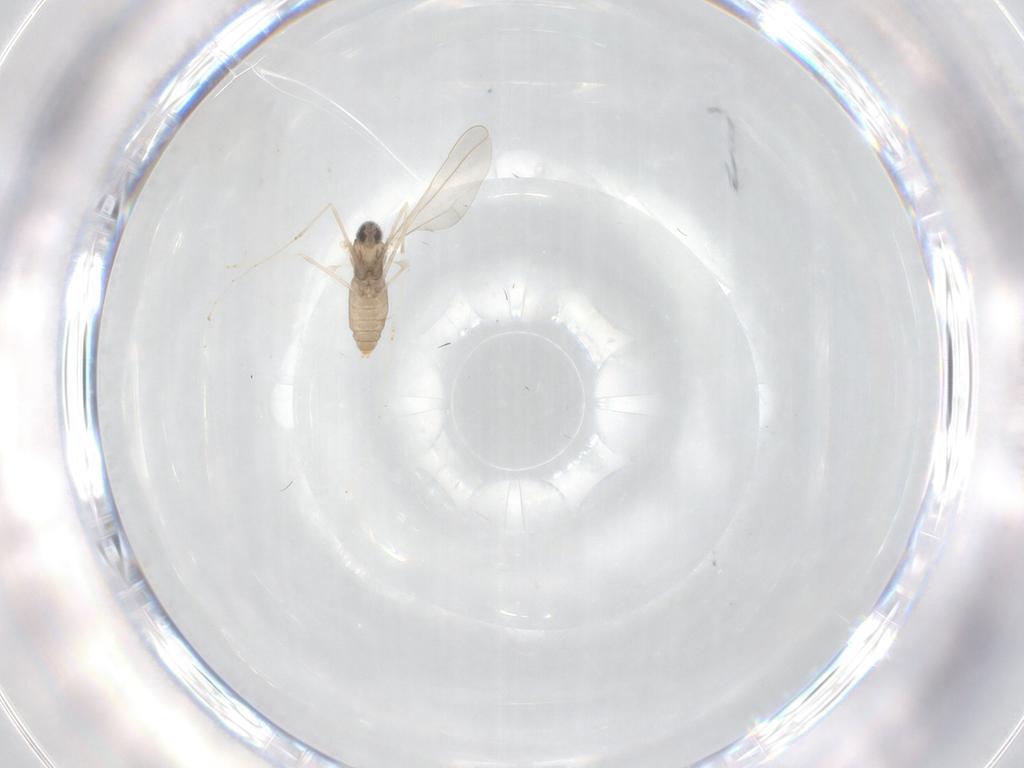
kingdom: Animalia
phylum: Arthropoda
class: Insecta
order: Diptera
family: Cecidomyiidae
